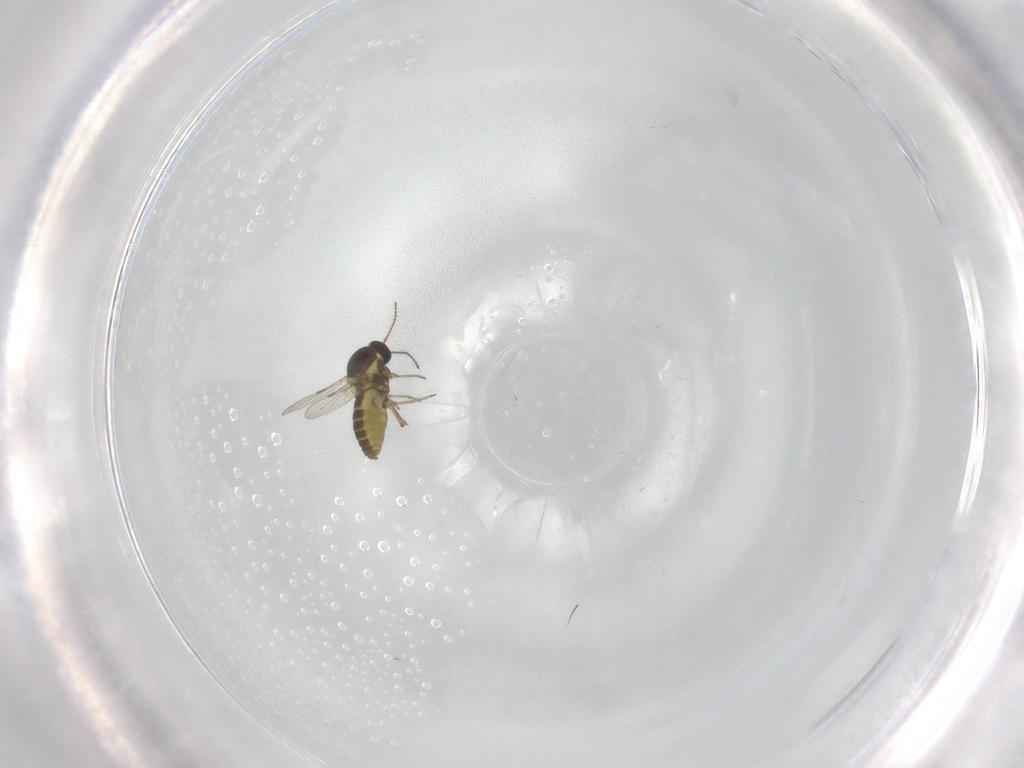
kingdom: Animalia
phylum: Arthropoda
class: Insecta
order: Diptera
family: Ceratopogonidae
